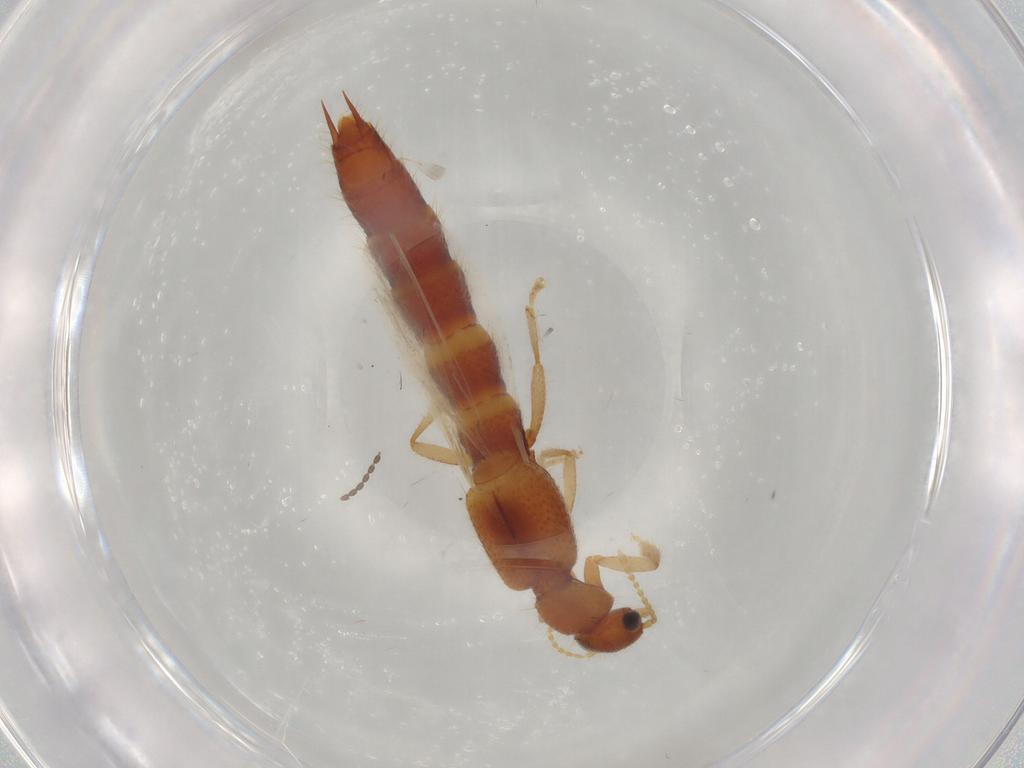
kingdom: Animalia
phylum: Arthropoda
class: Insecta
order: Coleoptera
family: Staphylinidae
